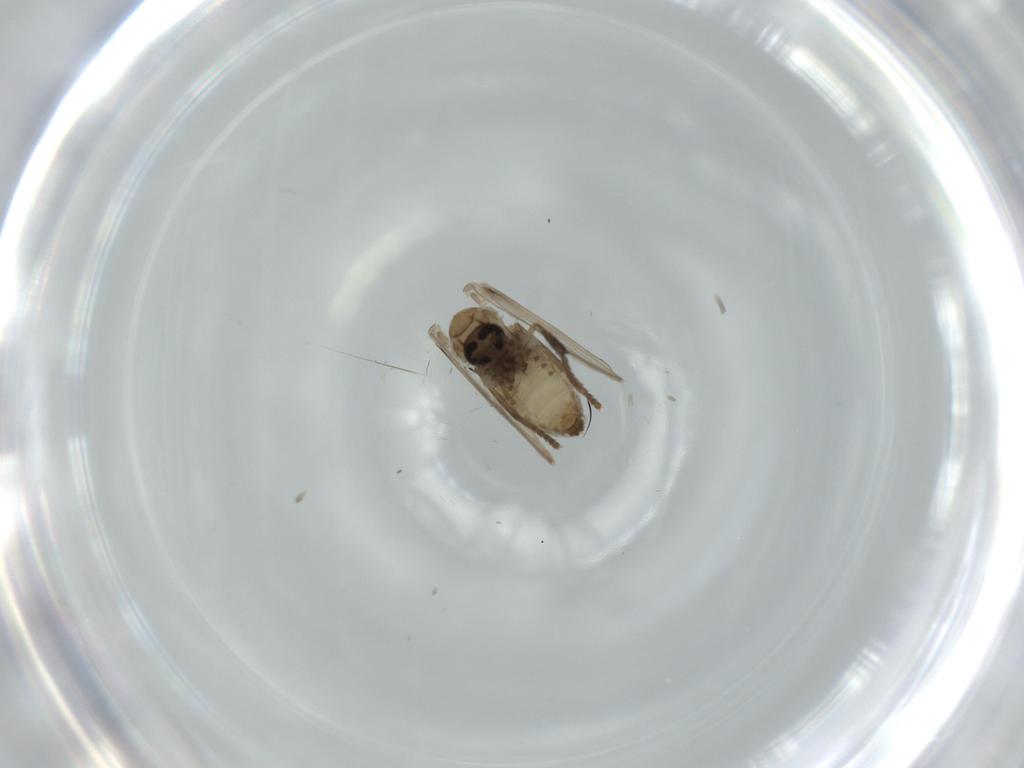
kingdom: Animalia
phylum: Arthropoda
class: Insecta
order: Diptera
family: Psychodidae
